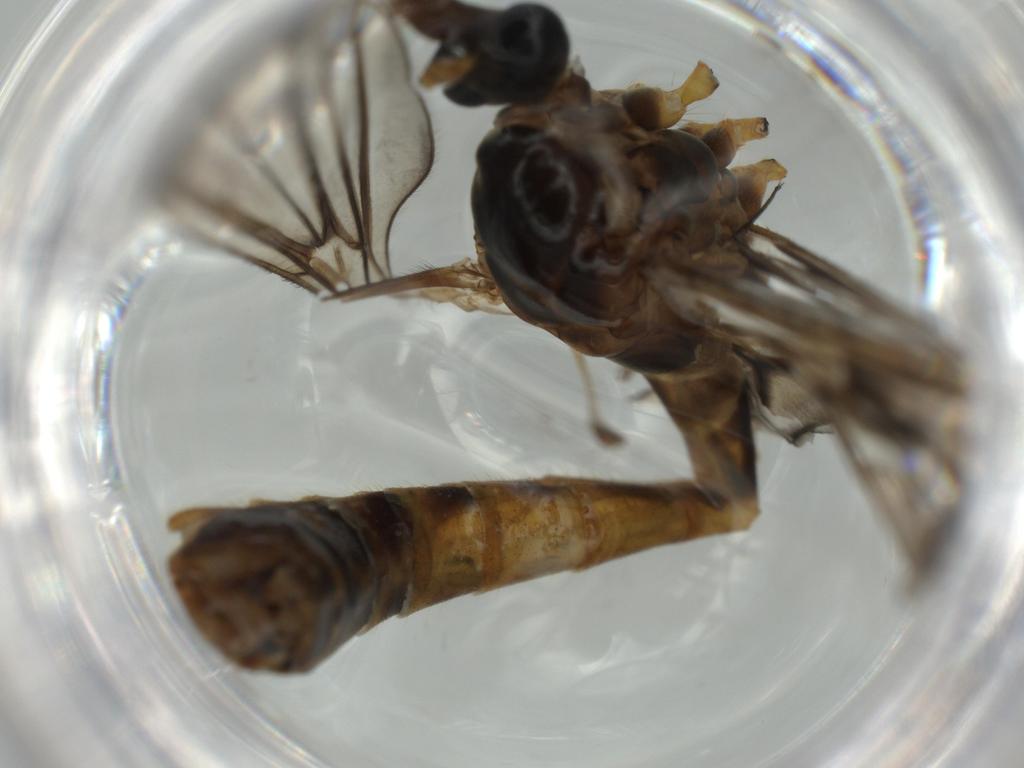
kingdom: Animalia
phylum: Arthropoda
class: Insecta
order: Diptera
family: Chironomidae
